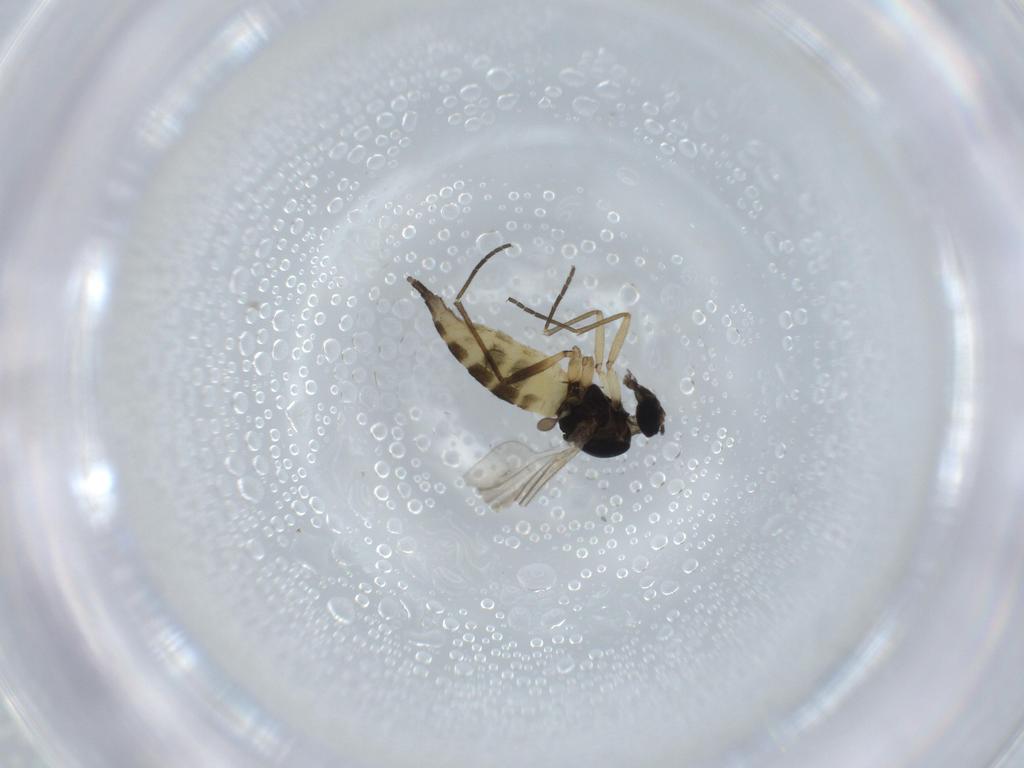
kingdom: Animalia
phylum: Arthropoda
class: Insecta
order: Diptera
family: Sciaridae
